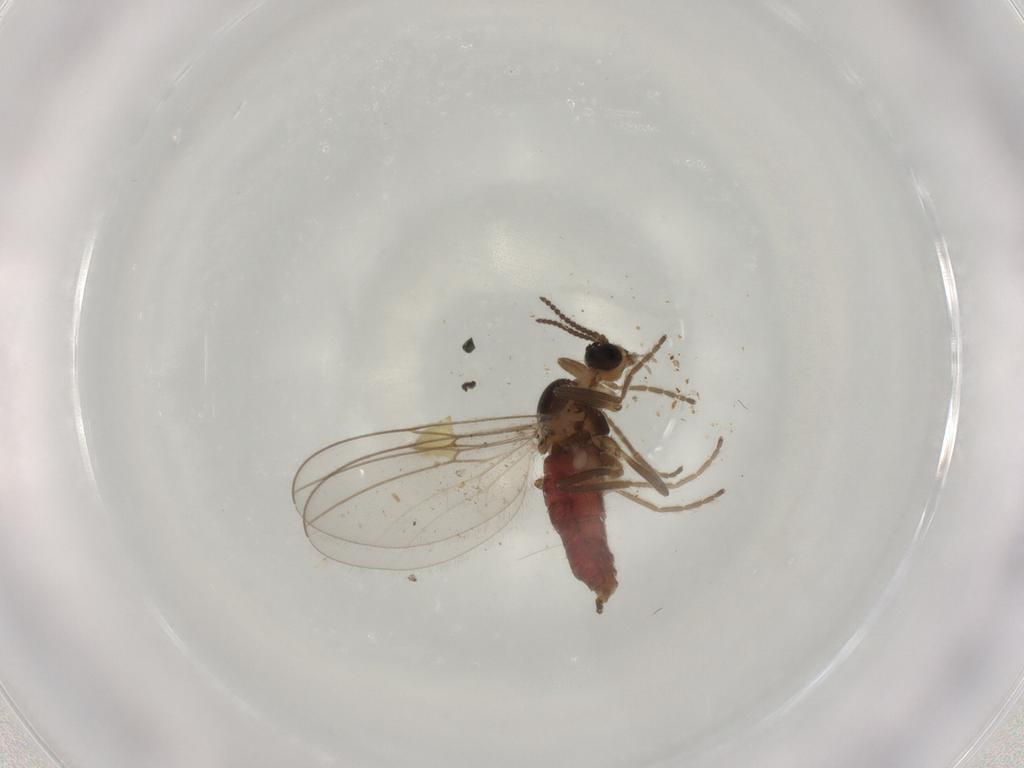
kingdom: Animalia
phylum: Arthropoda
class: Insecta
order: Diptera
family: Cecidomyiidae
